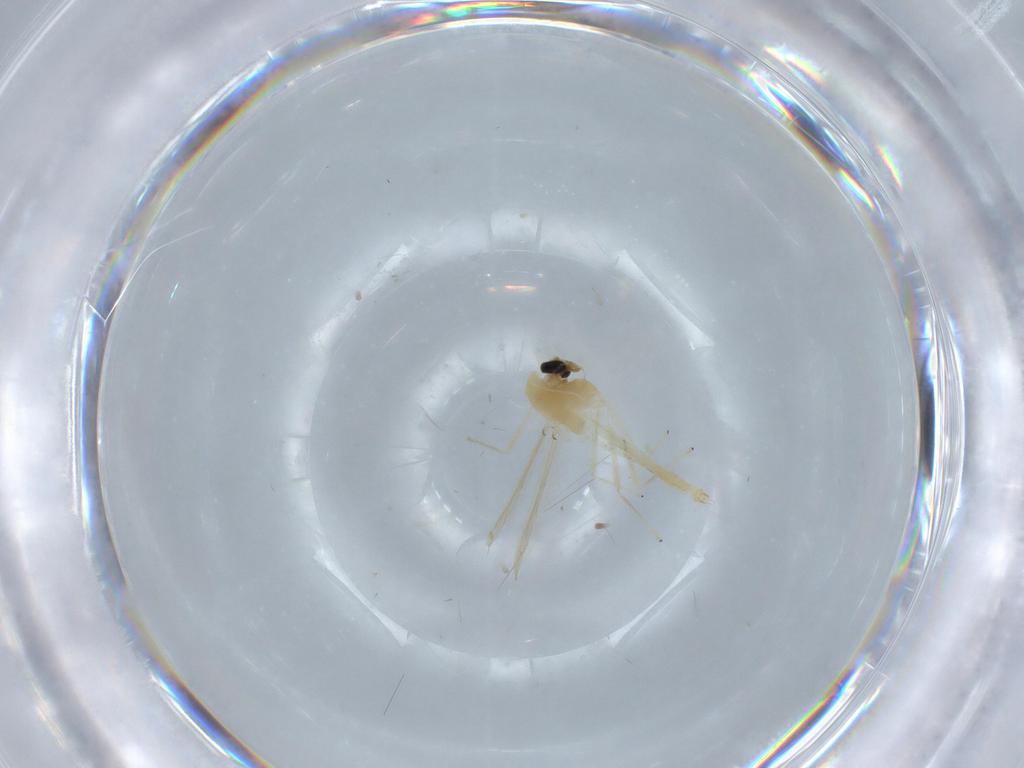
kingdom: Animalia
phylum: Arthropoda
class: Insecta
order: Diptera
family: Chironomidae
